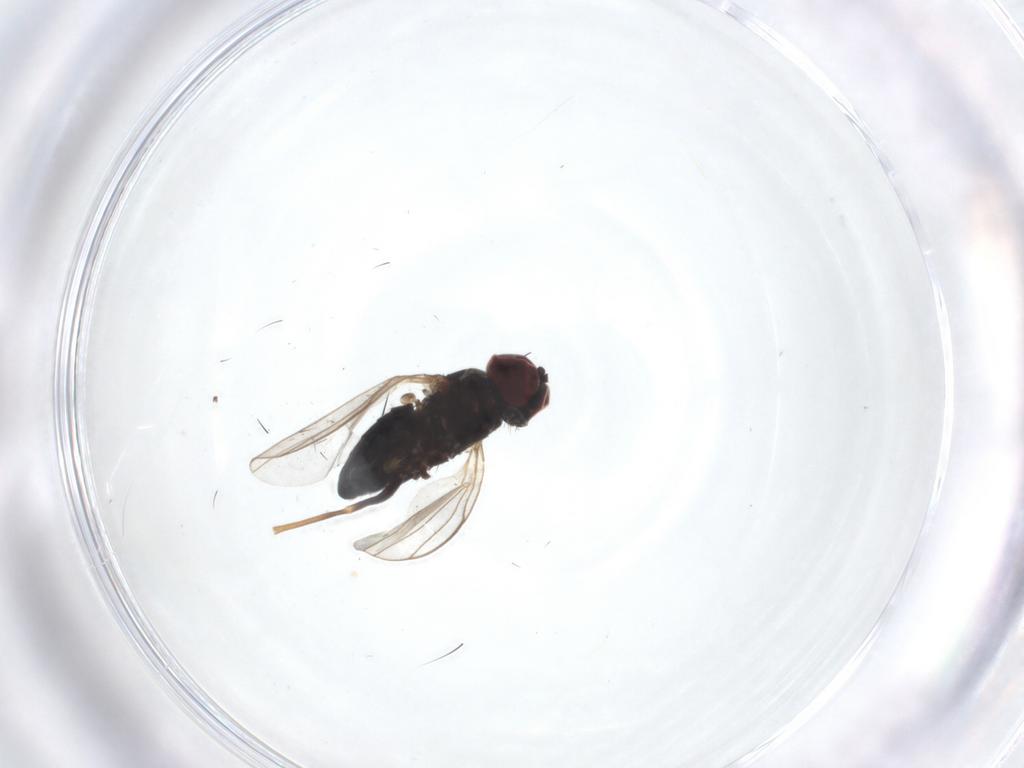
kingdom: Animalia
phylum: Arthropoda
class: Insecta
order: Diptera
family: Dolichopodidae
